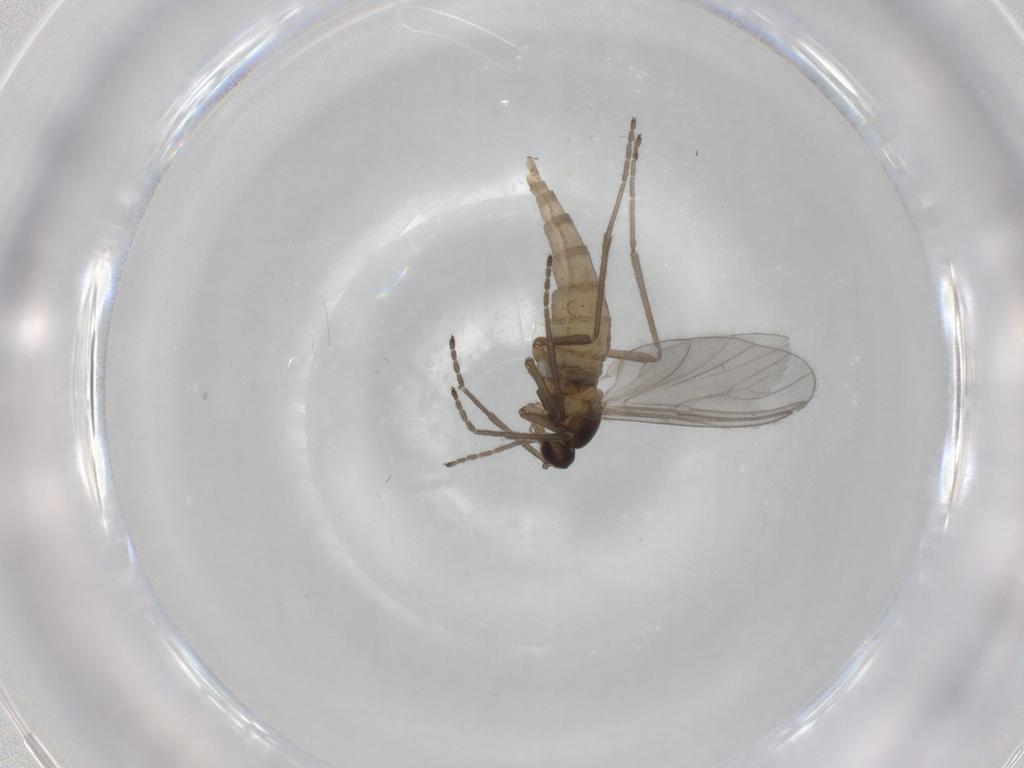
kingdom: Animalia
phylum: Arthropoda
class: Insecta
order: Diptera
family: Cecidomyiidae
